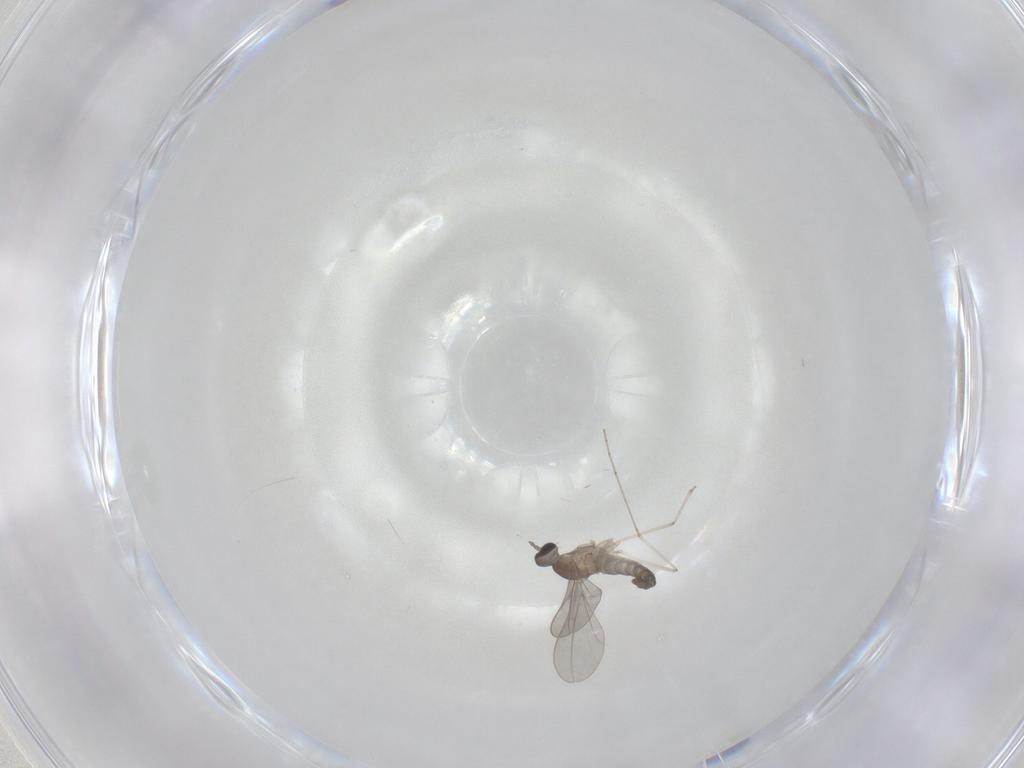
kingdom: Animalia
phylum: Arthropoda
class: Insecta
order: Diptera
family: Cecidomyiidae
